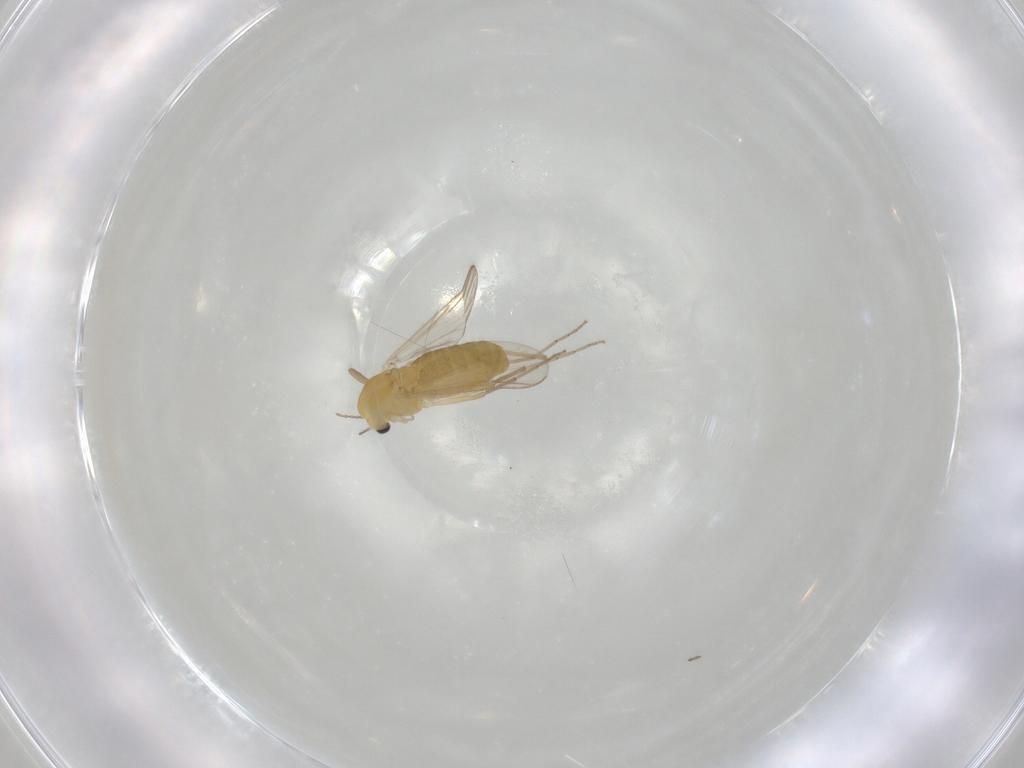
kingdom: Animalia
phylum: Arthropoda
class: Insecta
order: Diptera
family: Chironomidae
